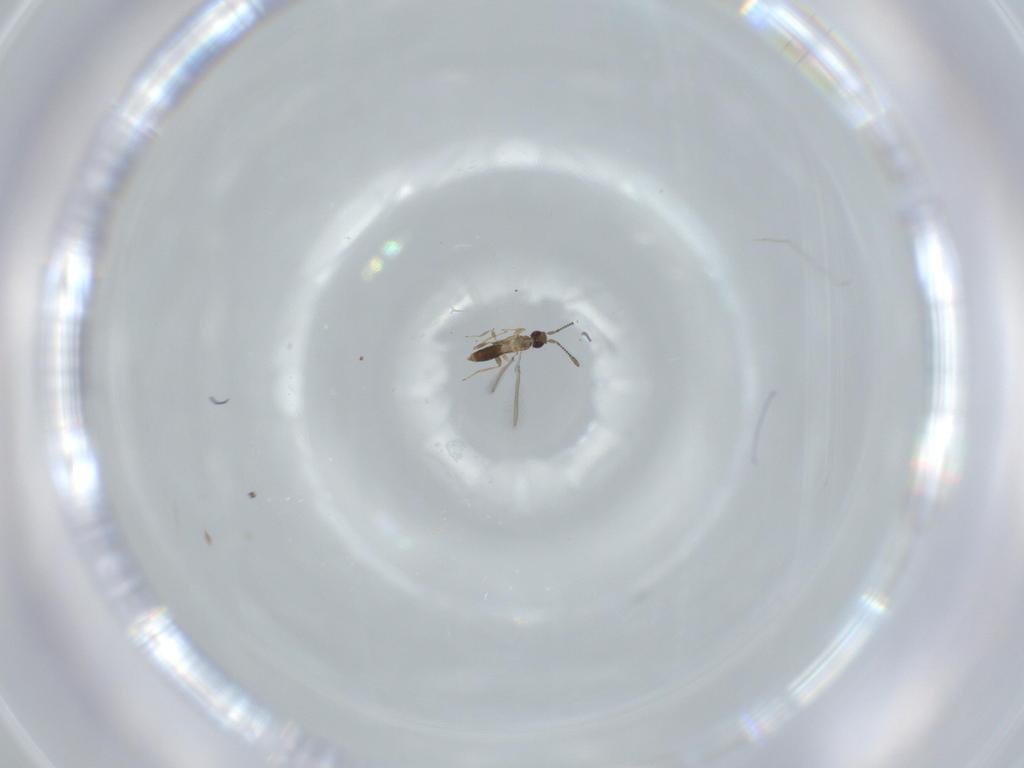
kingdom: Animalia
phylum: Arthropoda
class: Insecta
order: Hymenoptera
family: Mymaridae
